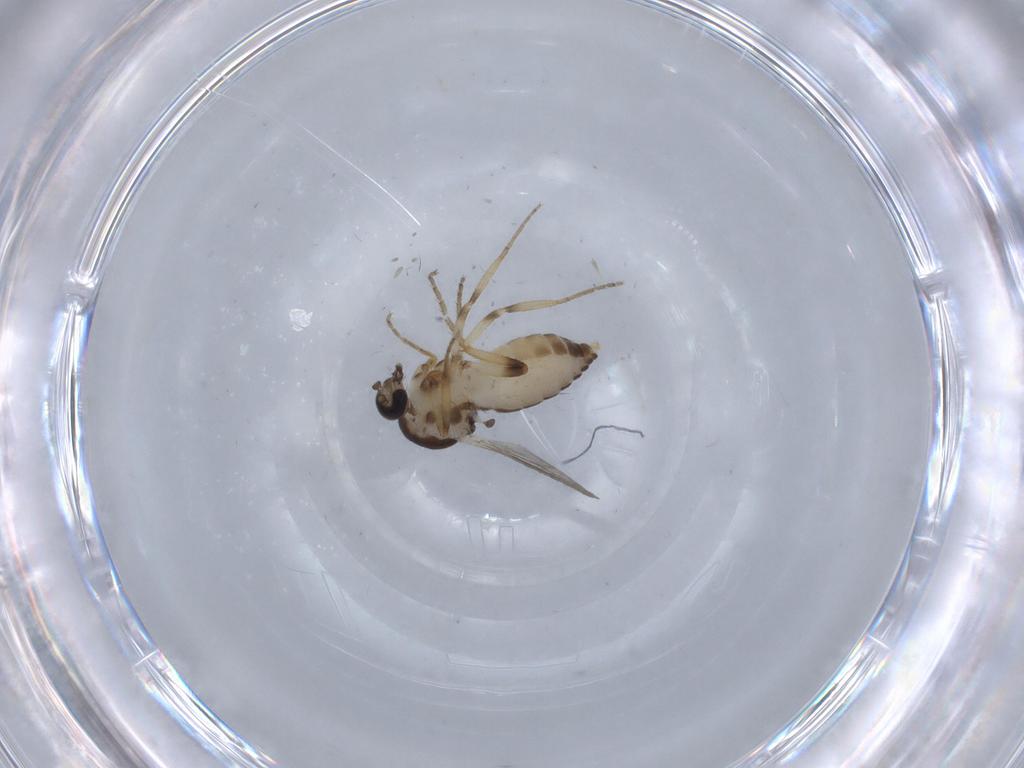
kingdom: Animalia
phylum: Arthropoda
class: Insecta
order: Diptera
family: Ceratopogonidae
